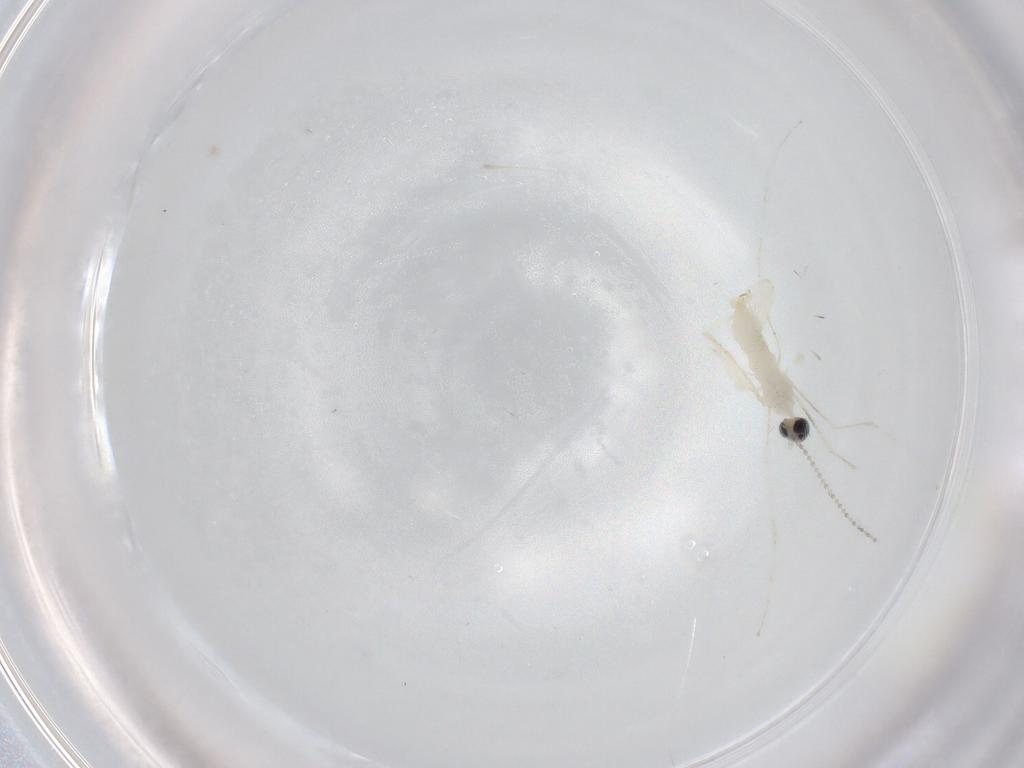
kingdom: Animalia
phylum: Arthropoda
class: Insecta
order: Diptera
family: Cecidomyiidae
